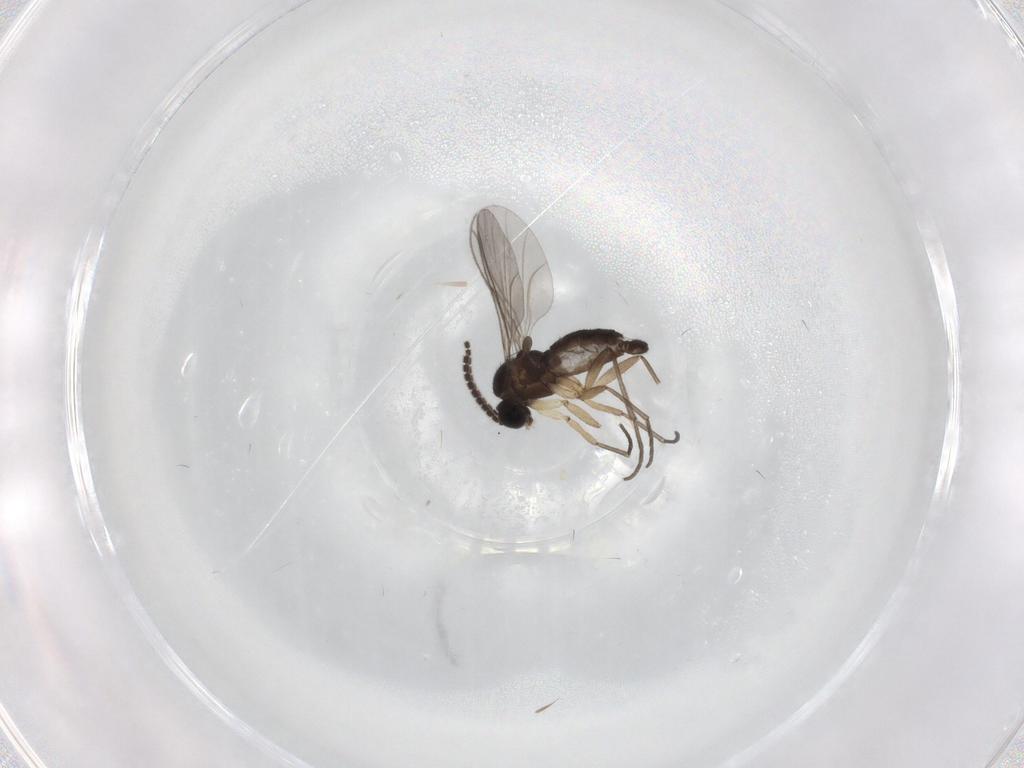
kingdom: Animalia
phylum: Arthropoda
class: Insecta
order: Diptera
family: Sciaridae
